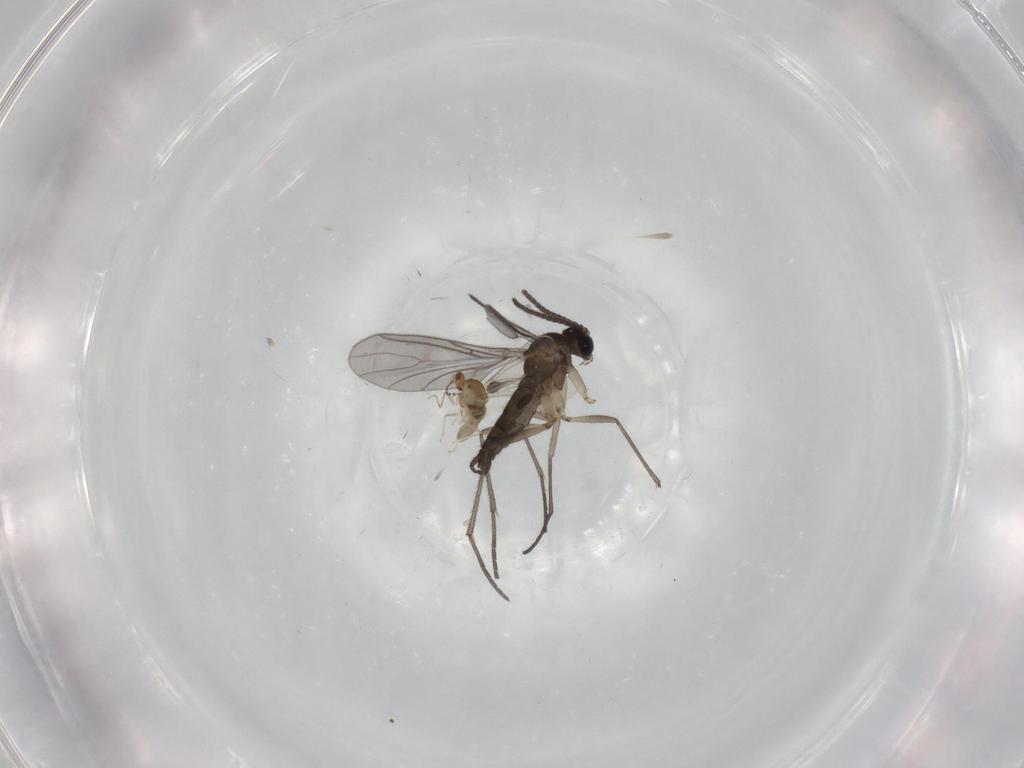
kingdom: Animalia
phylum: Arthropoda
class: Insecta
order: Diptera
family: Sciaridae
